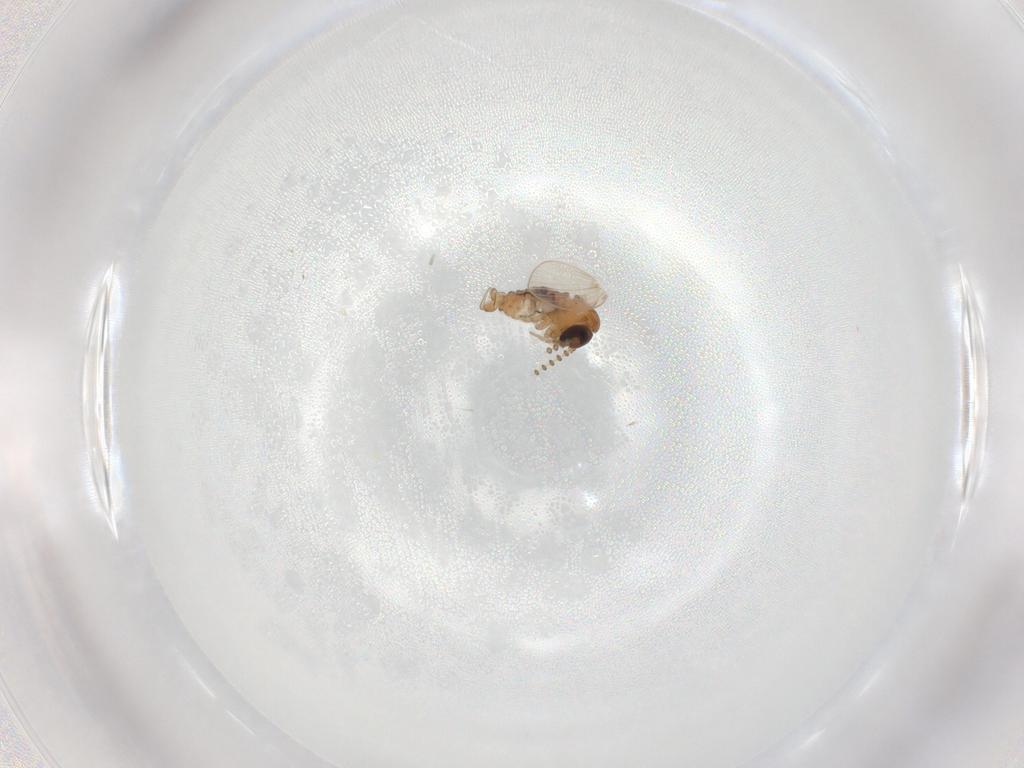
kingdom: Animalia
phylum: Arthropoda
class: Insecta
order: Diptera
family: Psychodidae
